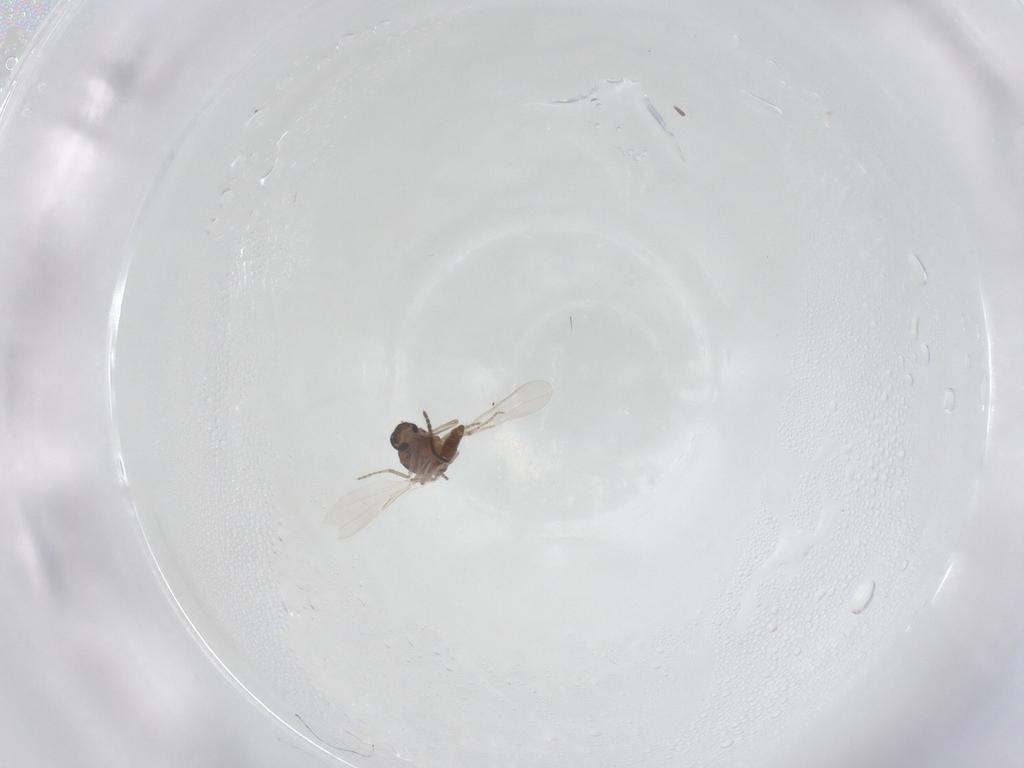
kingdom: Animalia
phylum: Arthropoda
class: Insecta
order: Diptera
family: Ceratopogonidae
